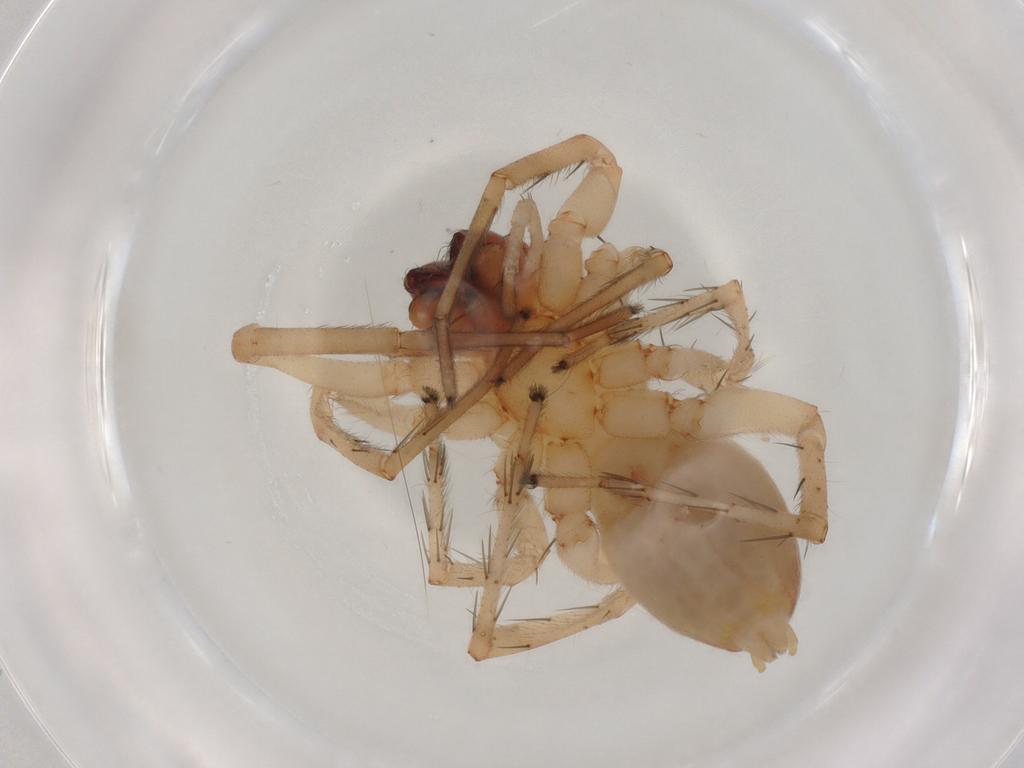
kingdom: Animalia
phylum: Arthropoda
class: Arachnida
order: Araneae
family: Anyphaenidae
